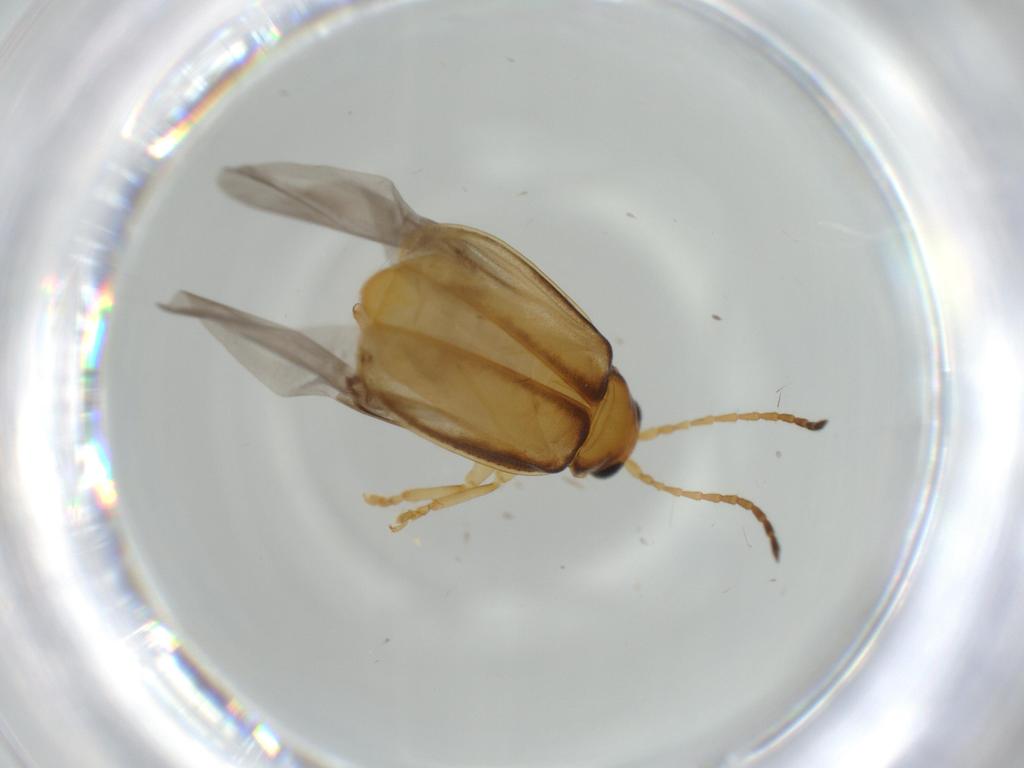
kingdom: Animalia
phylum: Arthropoda
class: Insecta
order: Coleoptera
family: Chrysomelidae
